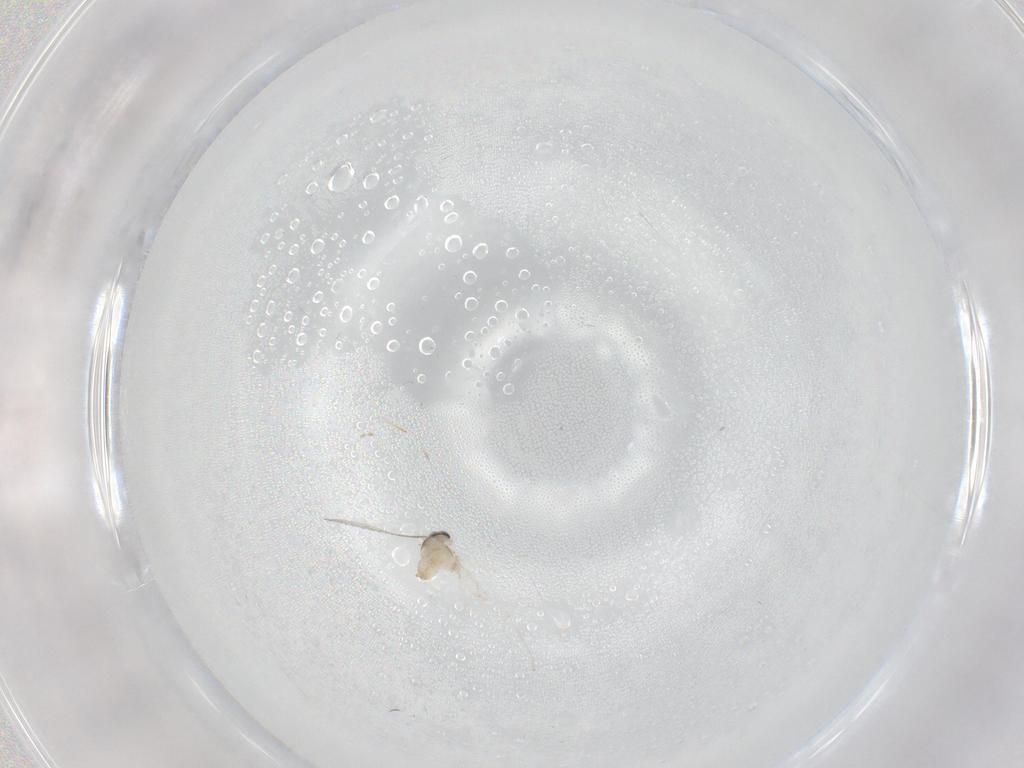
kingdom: Animalia
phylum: Arthropoda
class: Insecta
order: Diptera
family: Cecidomyiidae
